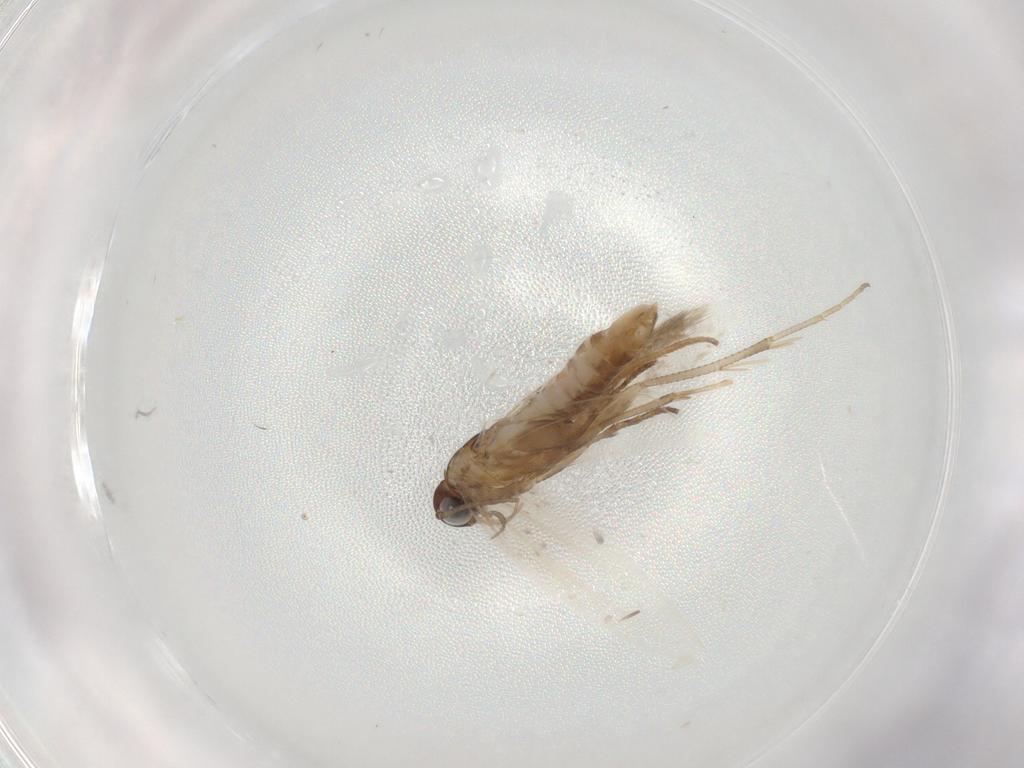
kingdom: Animalia
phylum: Arthropoda
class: Insecta
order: Lepidoptera
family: Gelechiidae
